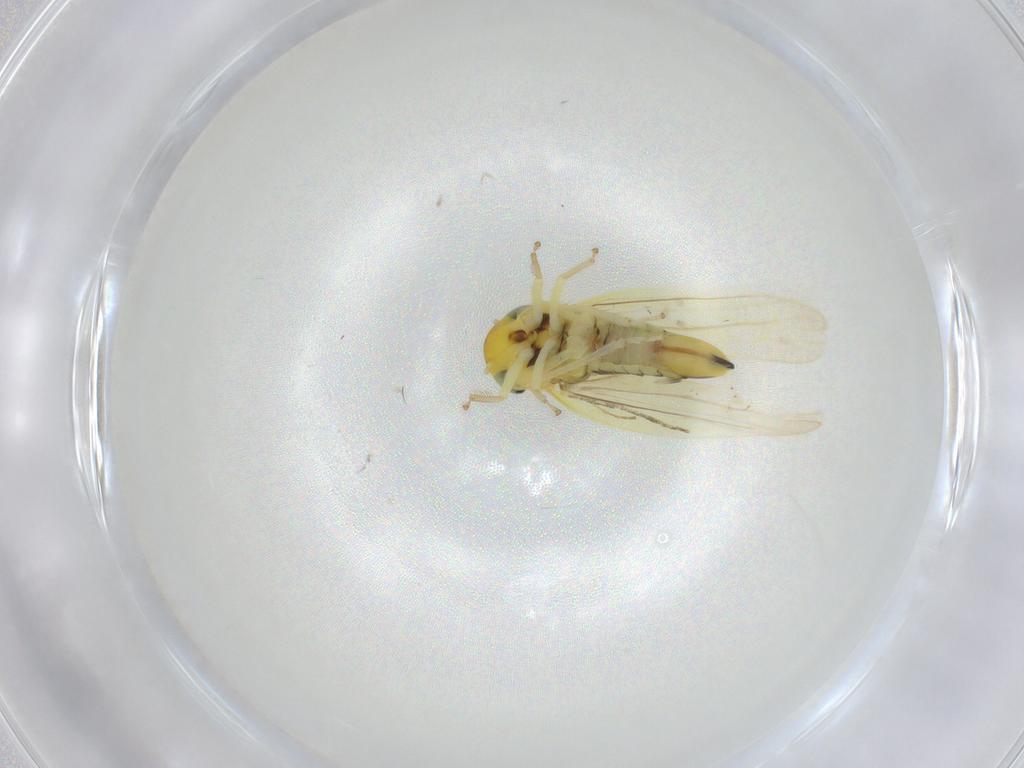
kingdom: Animalia
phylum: Arthropoda
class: Insecta
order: Hemiptera
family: Cicadellidae
